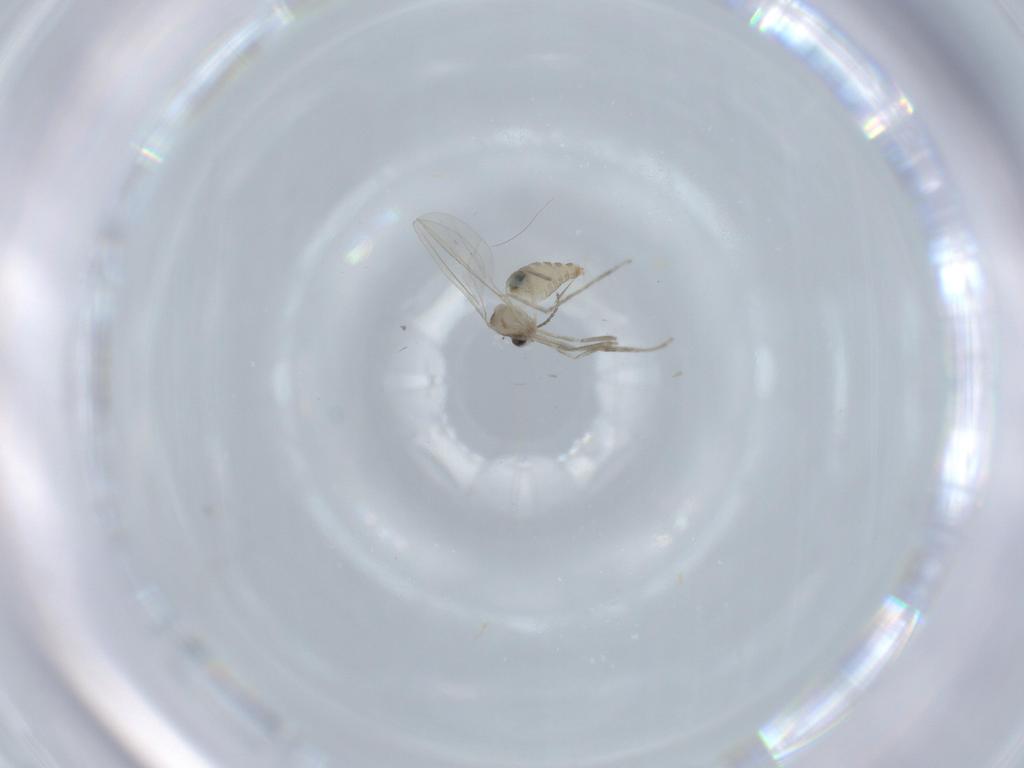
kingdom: Animalia
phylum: Arthropoda
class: Insecta
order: Diptera
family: Cecidomyiidae
